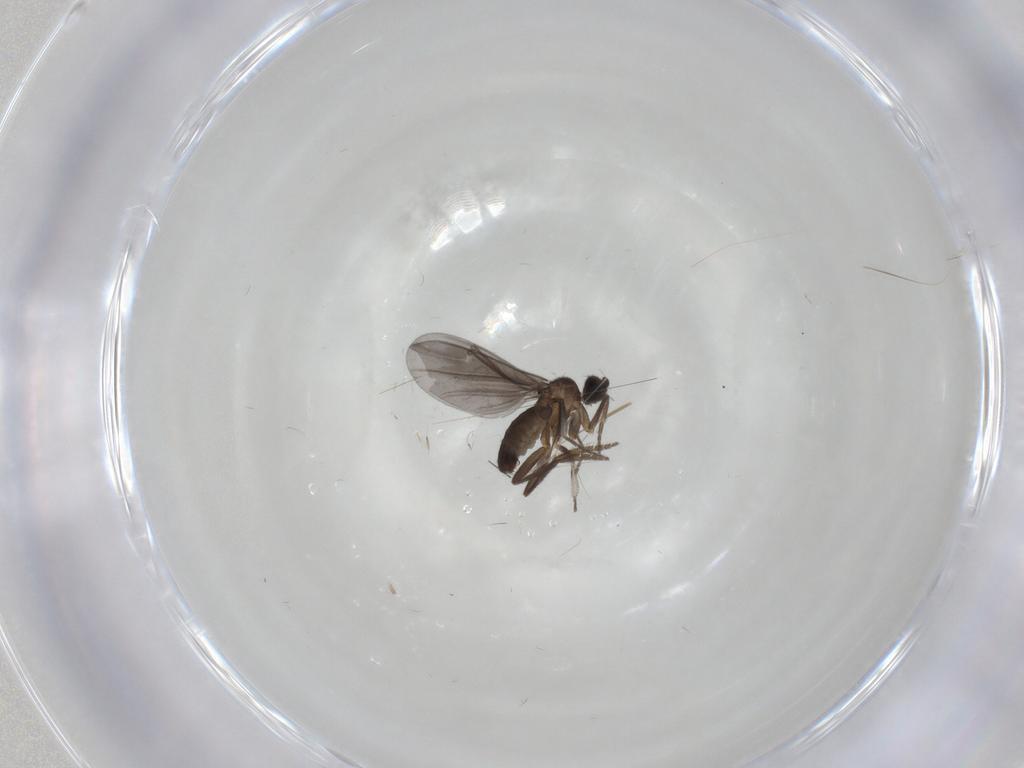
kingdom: Animalia
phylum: Arthropoda
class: Insecta
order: Diptera
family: Phoridae
